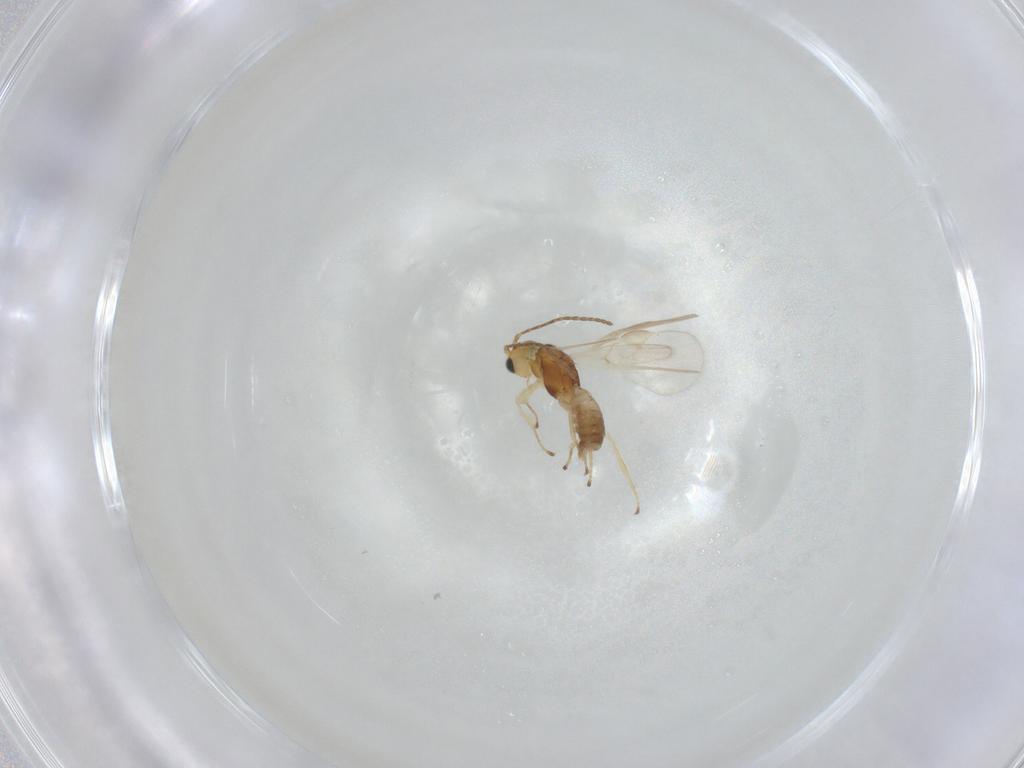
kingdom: Animalia
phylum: Arthropoda
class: Insecta
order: Hymenoptera
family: Braconidae
